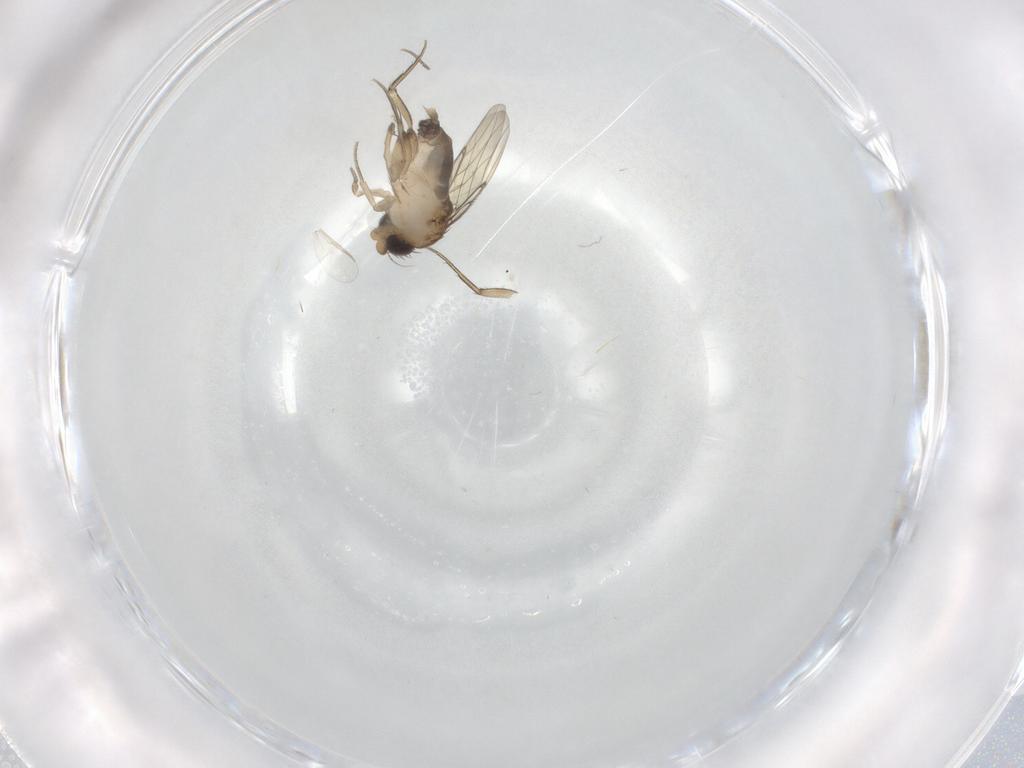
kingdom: Animalia
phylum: Arthropoda
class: Insecta
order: Diptera
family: Phoridae
